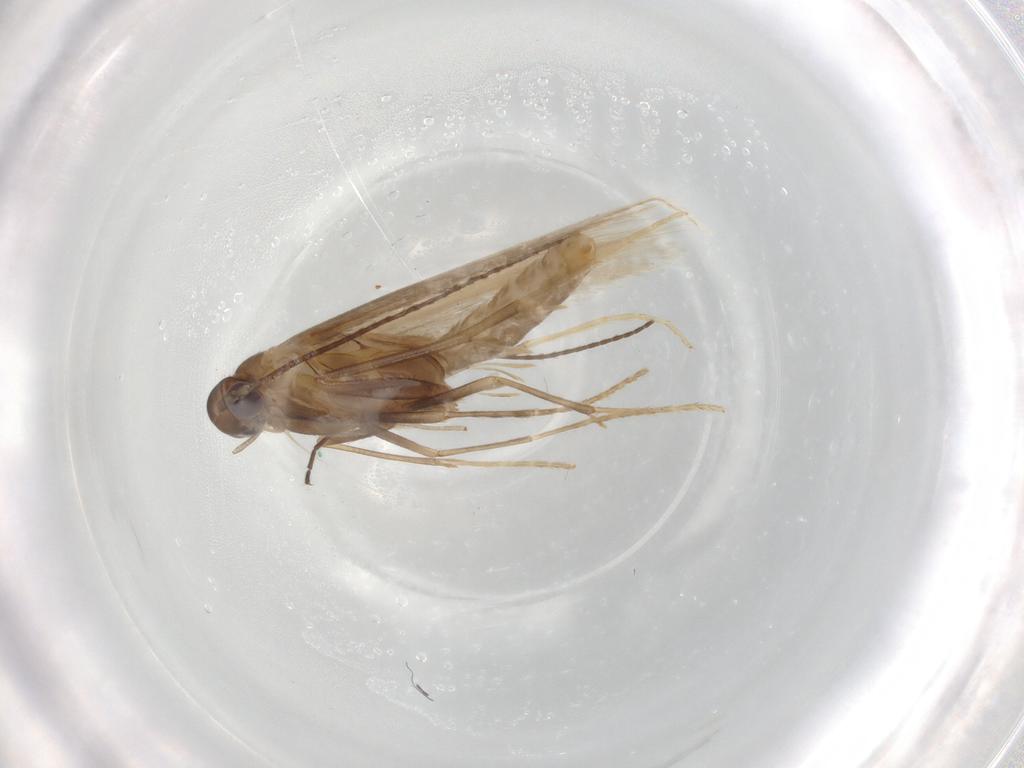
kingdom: Animalia
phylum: Arthropoda
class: Insecta
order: Lepidoptera
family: Coleophoridae
